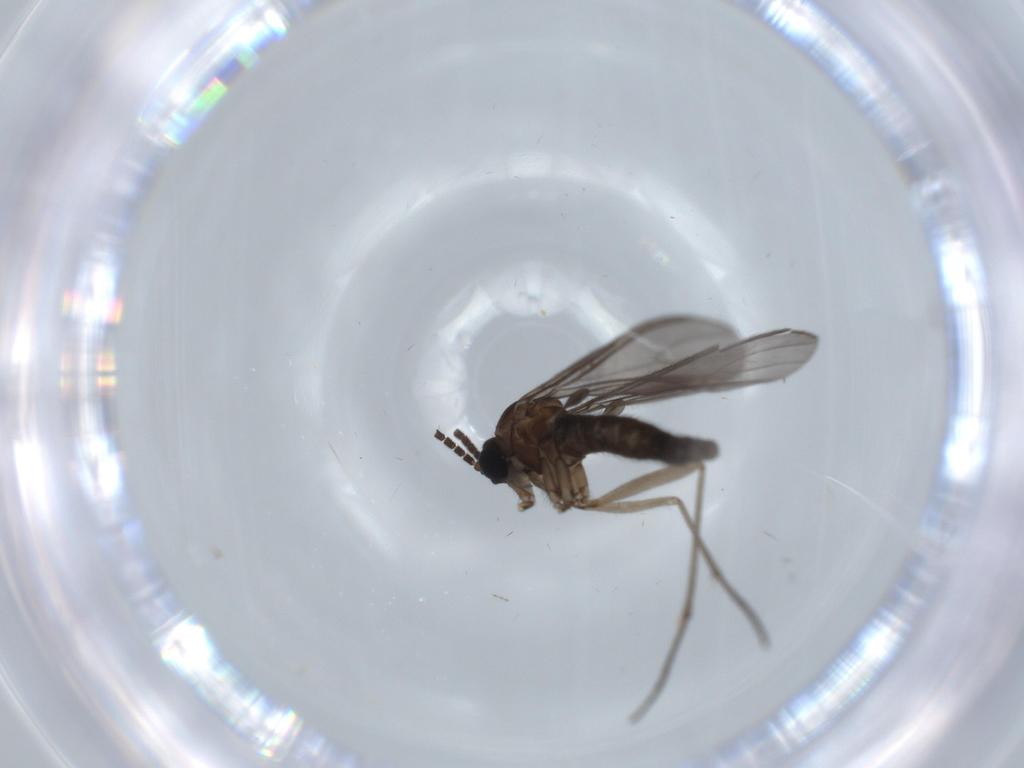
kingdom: Animalia
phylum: Arthropoda
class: Insecta
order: Diptera
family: Sciaridae
